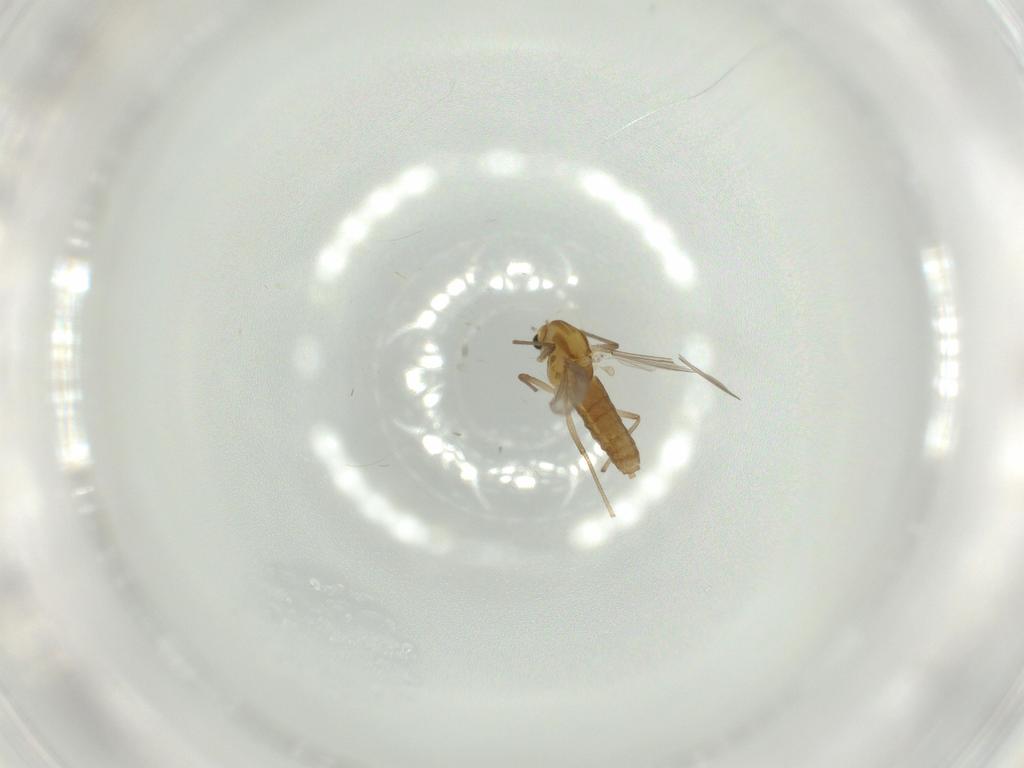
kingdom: Animalia
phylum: Arthropoda
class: Insecta
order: Diptera
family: Chironomidae
